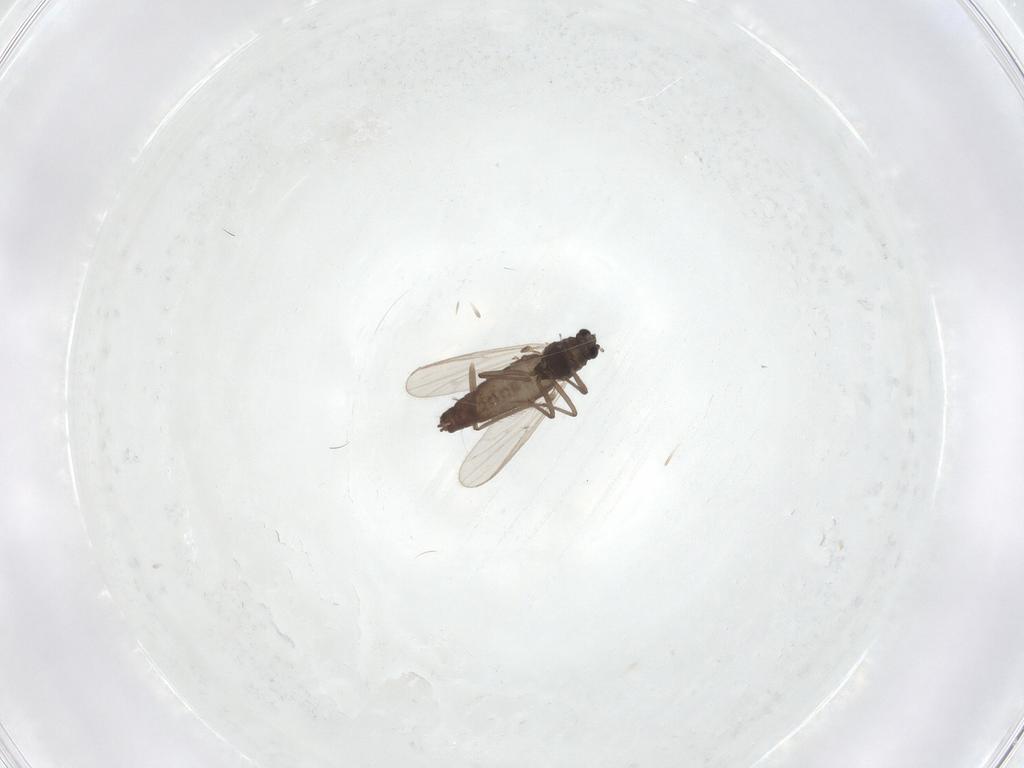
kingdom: Animalia
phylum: Arthropoda
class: Insecta
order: Diptera
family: Chironomidae
